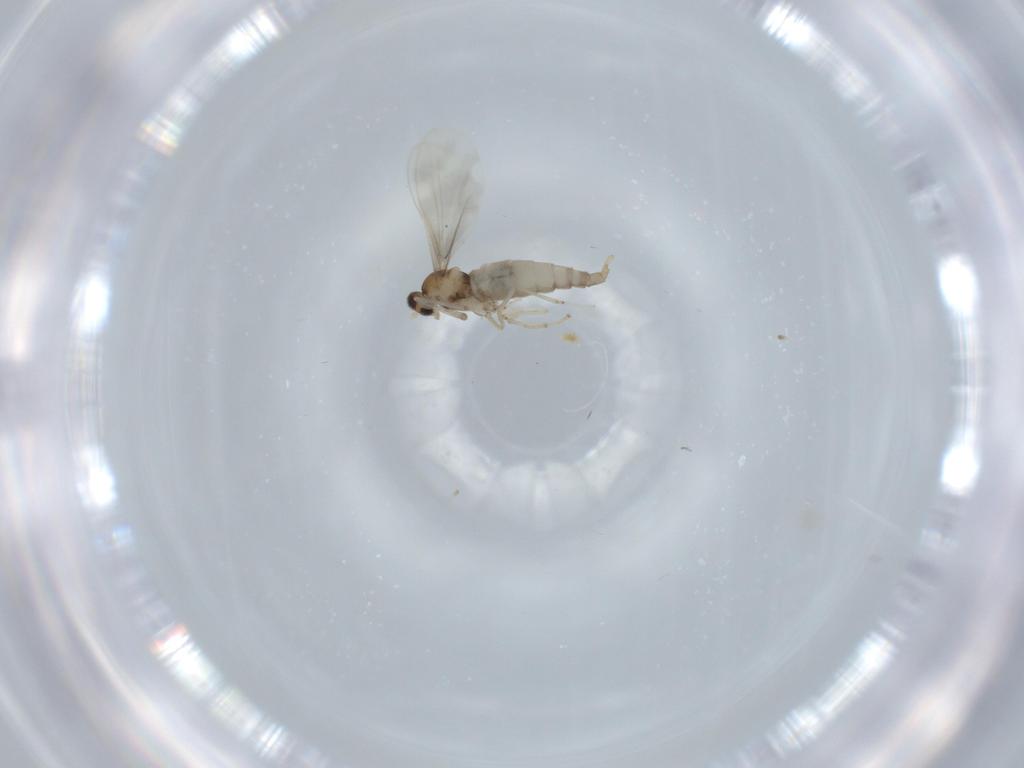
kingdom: Animalia
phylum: Arthropoda
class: Insecta
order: Diptera
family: Cecidomyiidae
